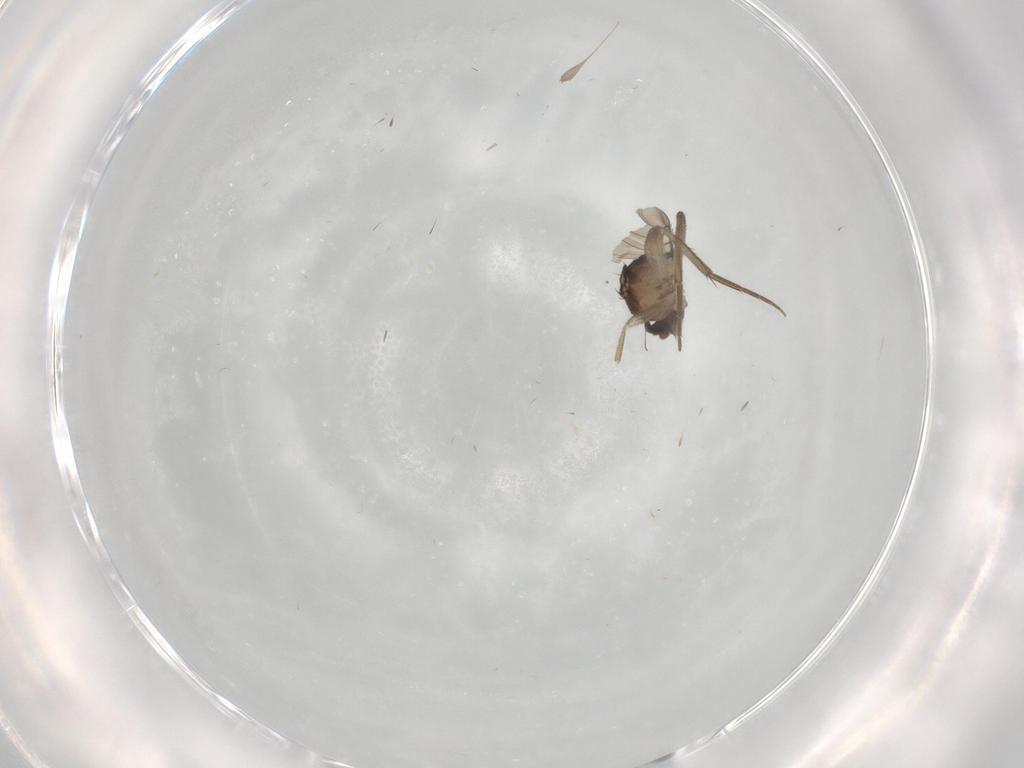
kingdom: Animalia
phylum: Arthropoda
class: Insecta
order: Diptera
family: Phoridae
